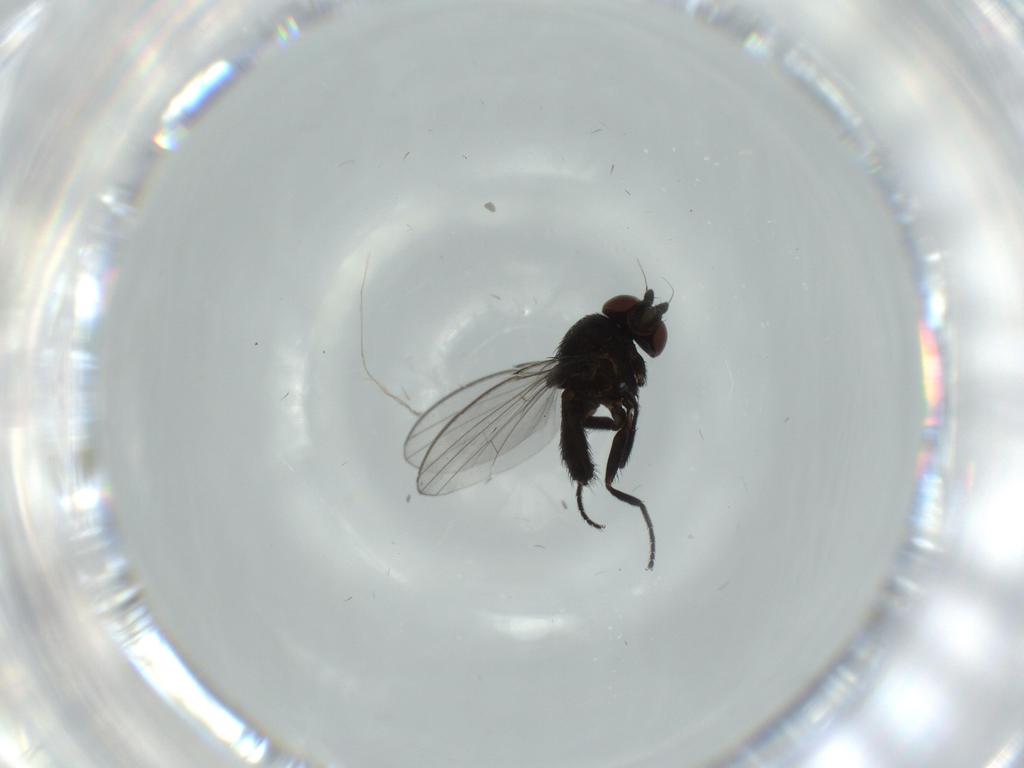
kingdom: Animalia
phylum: Arthropoda
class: Insecta
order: Diptera
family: Milichiidae
